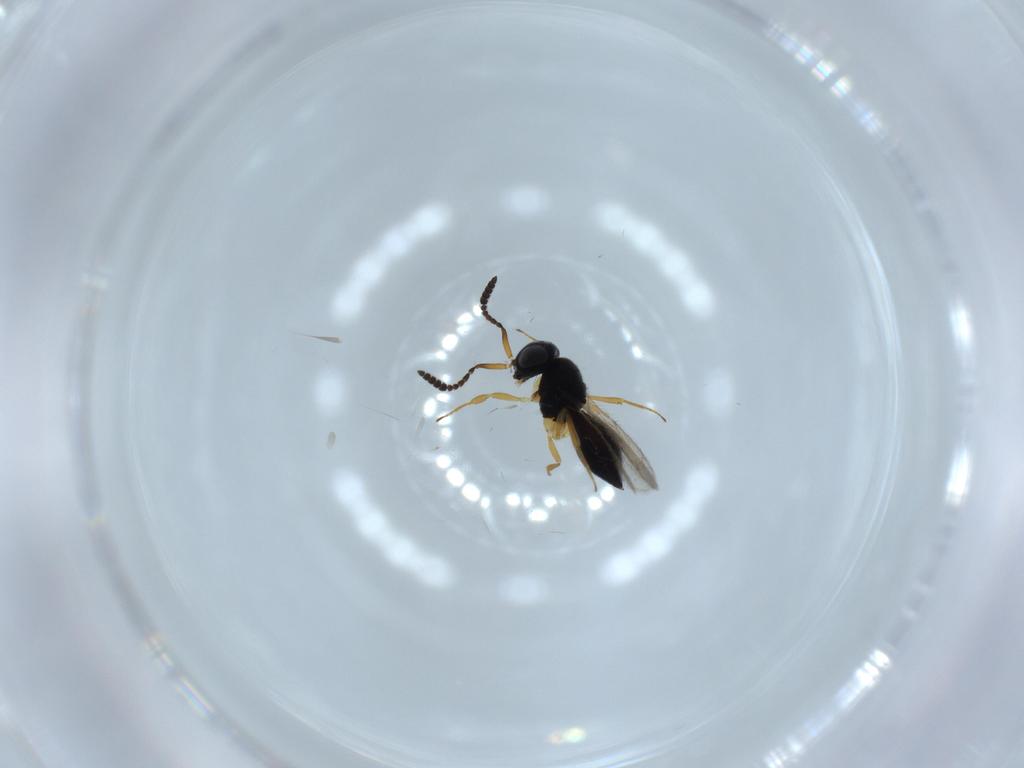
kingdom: Animalia
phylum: Arthropoda
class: Insecta
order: Hymenoptera
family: Scelionidae
